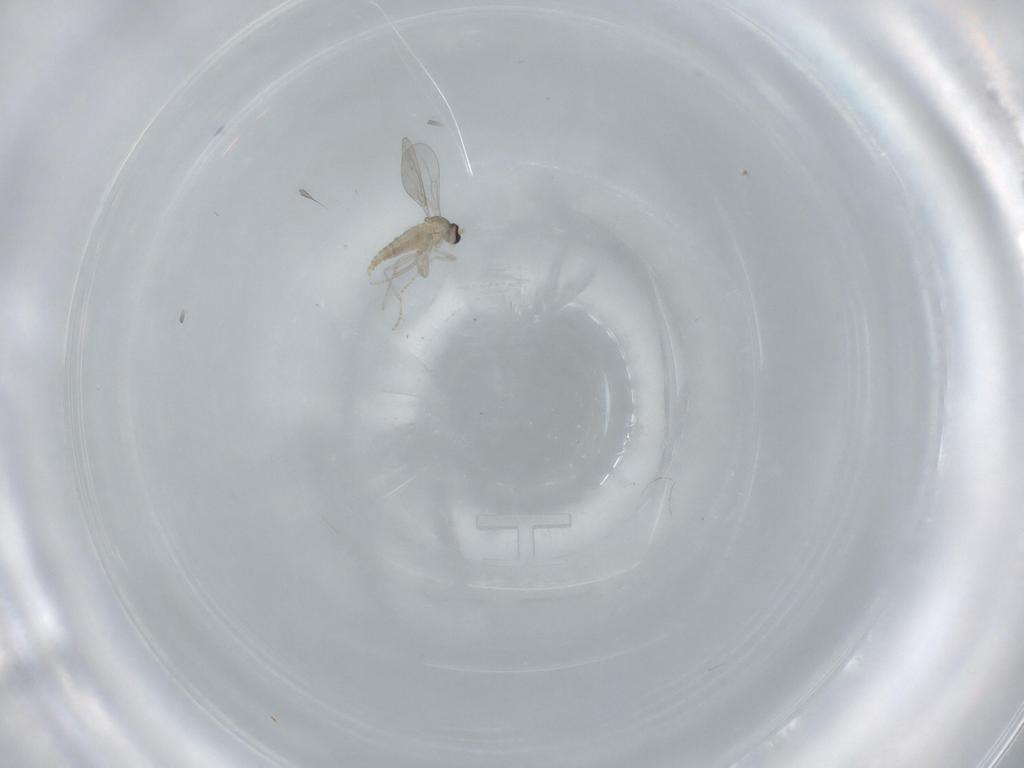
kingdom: Animalia
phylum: Arthropoda
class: Insecta
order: Diptera
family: Cecidomyiidae
